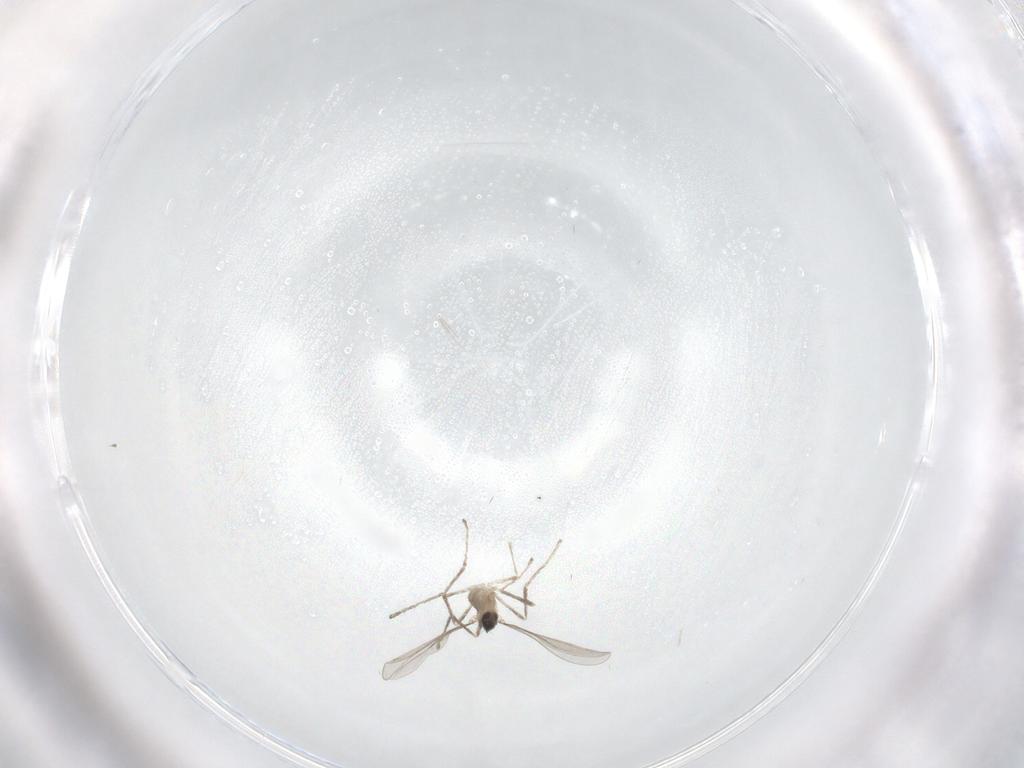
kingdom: Animalia
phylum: Arthropoda
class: Insecta
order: Diptera
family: Cecidomyiidae
